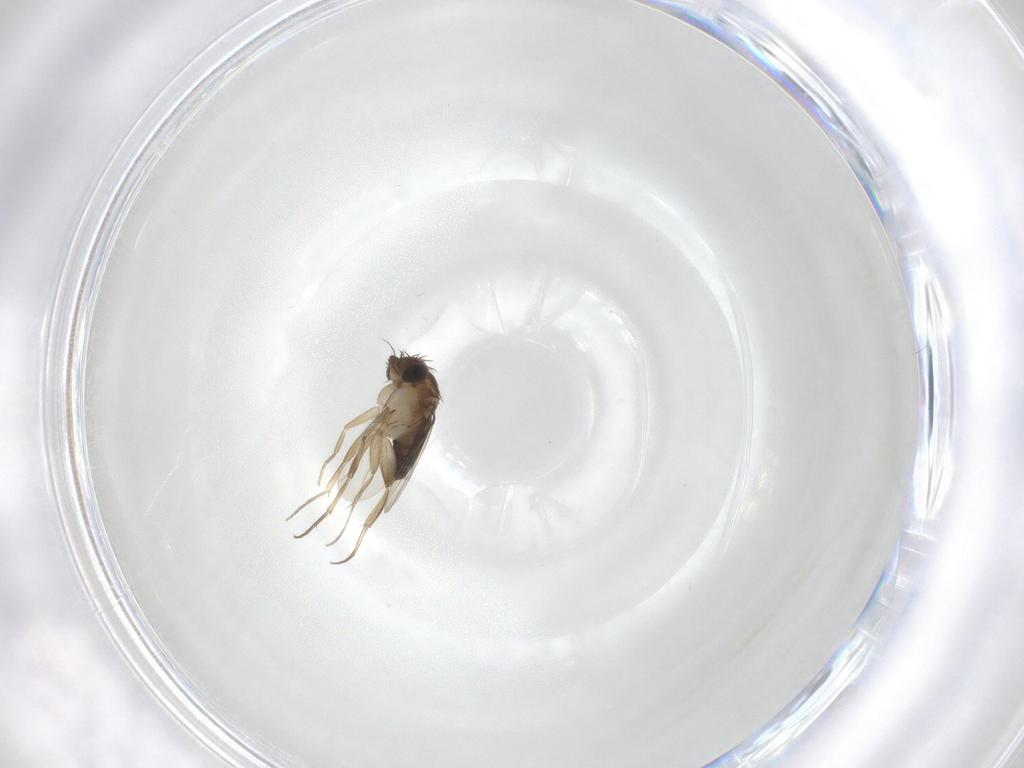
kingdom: Animalia
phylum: Arthropoda
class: Insecta
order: Diptera
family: Phoridae
